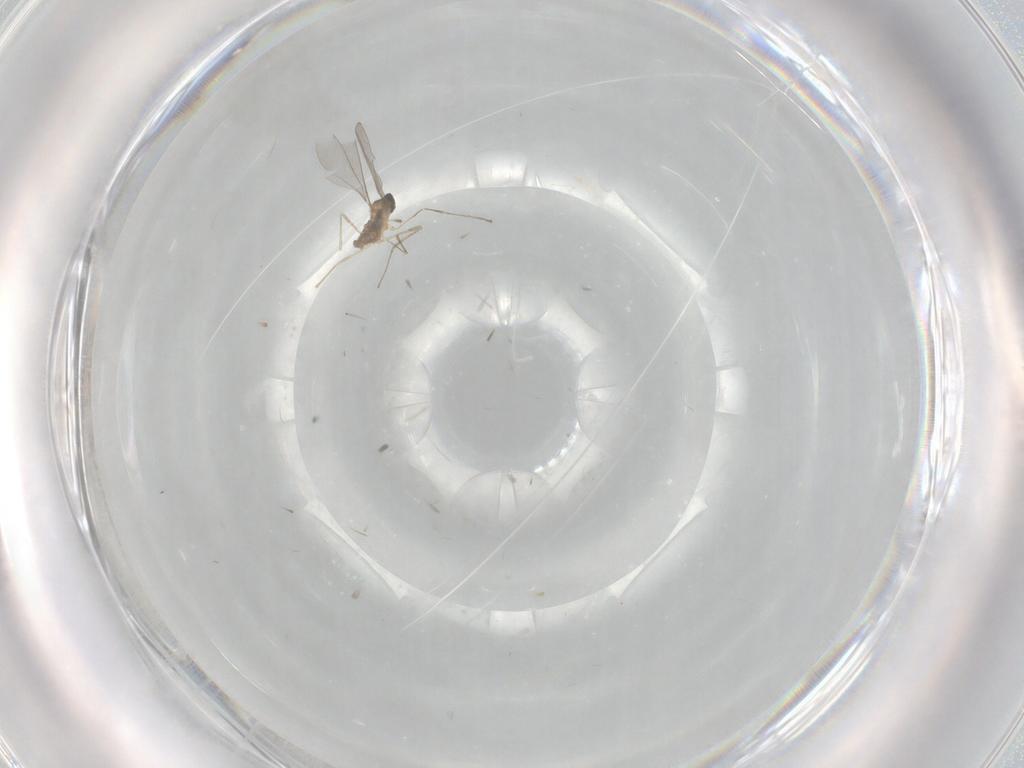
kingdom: Animalia
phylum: Arthropoda
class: Insecta
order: Diptera
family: Cecidomyiidae
